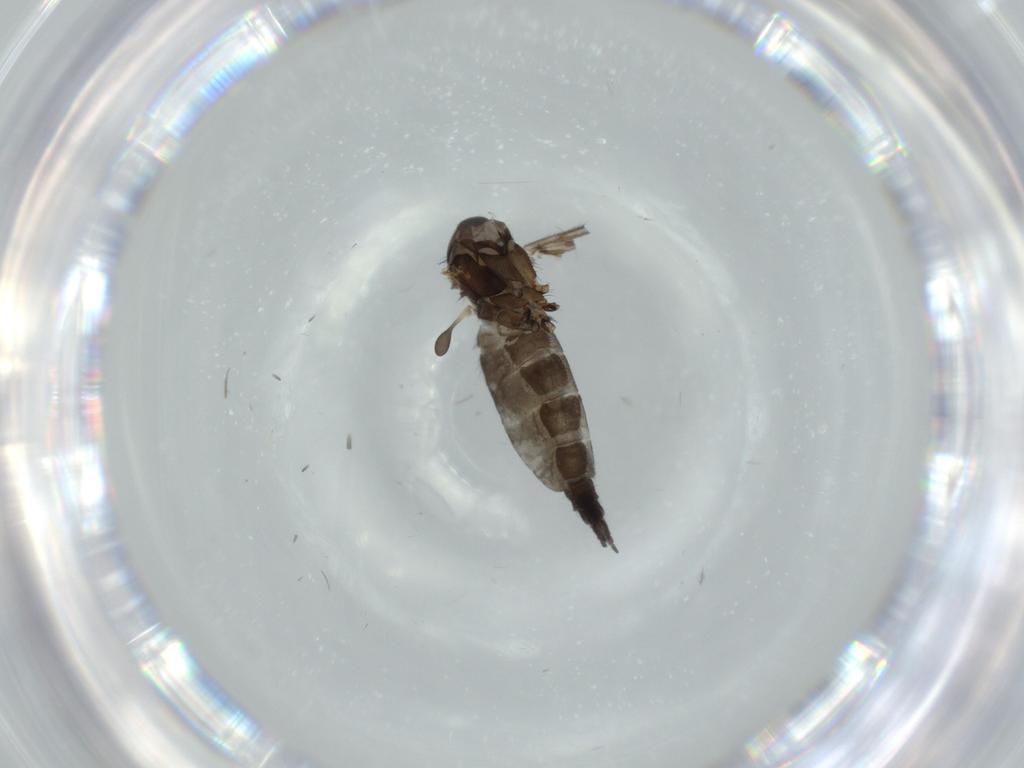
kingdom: Animalia
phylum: Arthropoda
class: Insecta
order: Diptera
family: Sciaridae
